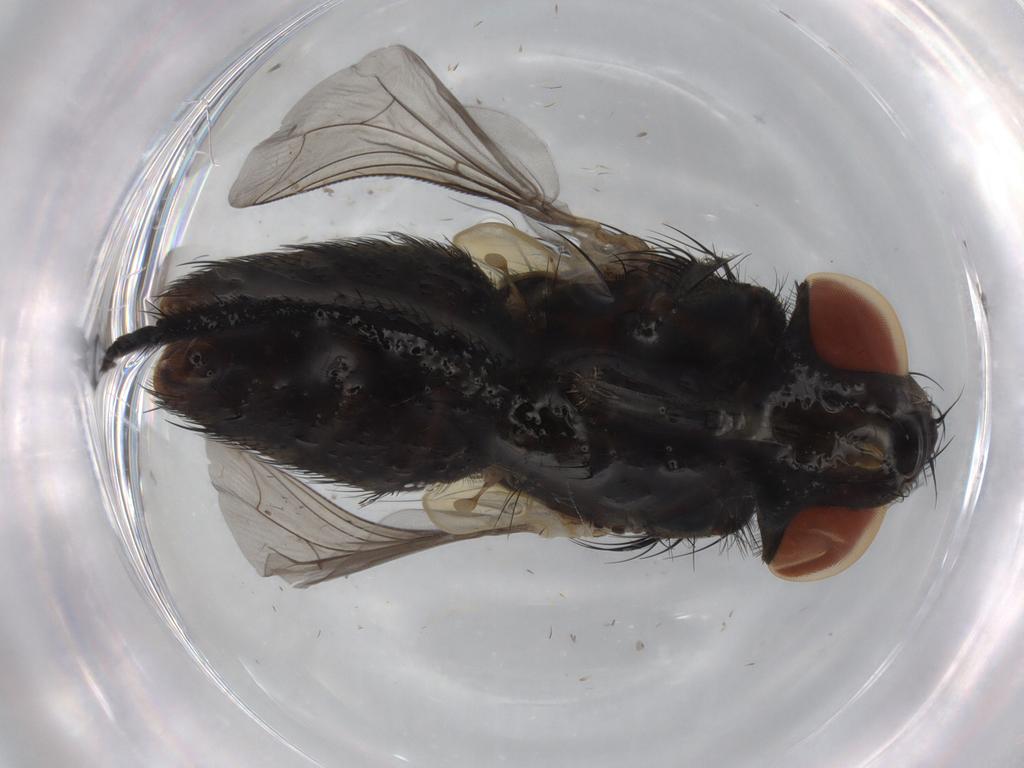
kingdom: Animalia
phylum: Arthropoda
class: Insecta
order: Diptera
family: Sarcophagidae
